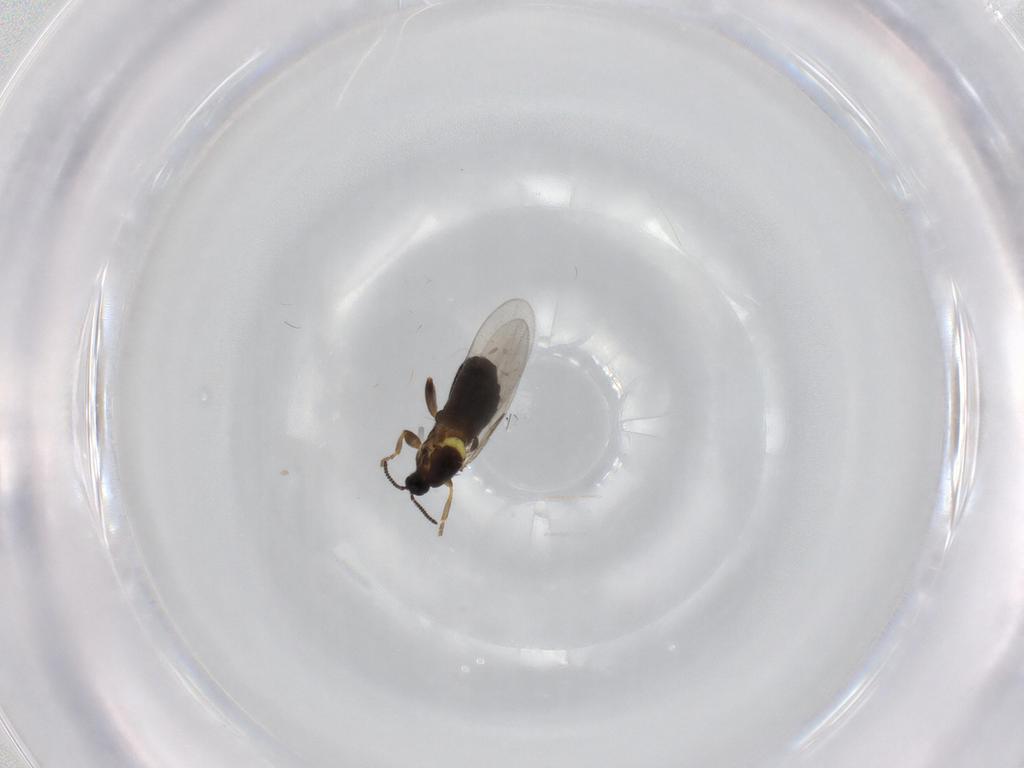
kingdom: Animalia
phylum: Arthropoda
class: Insecta
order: Diptera
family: Scatopsidae
